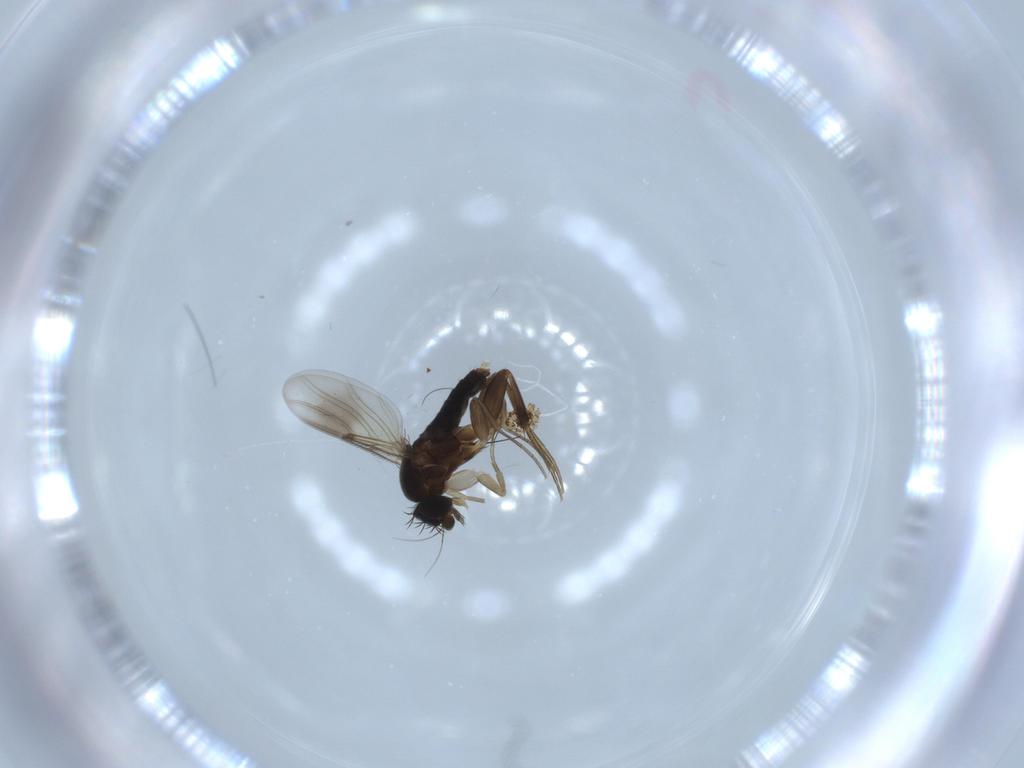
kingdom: Animalia
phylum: Arthropoda
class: Insecta
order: Diptera
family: Phoridae
